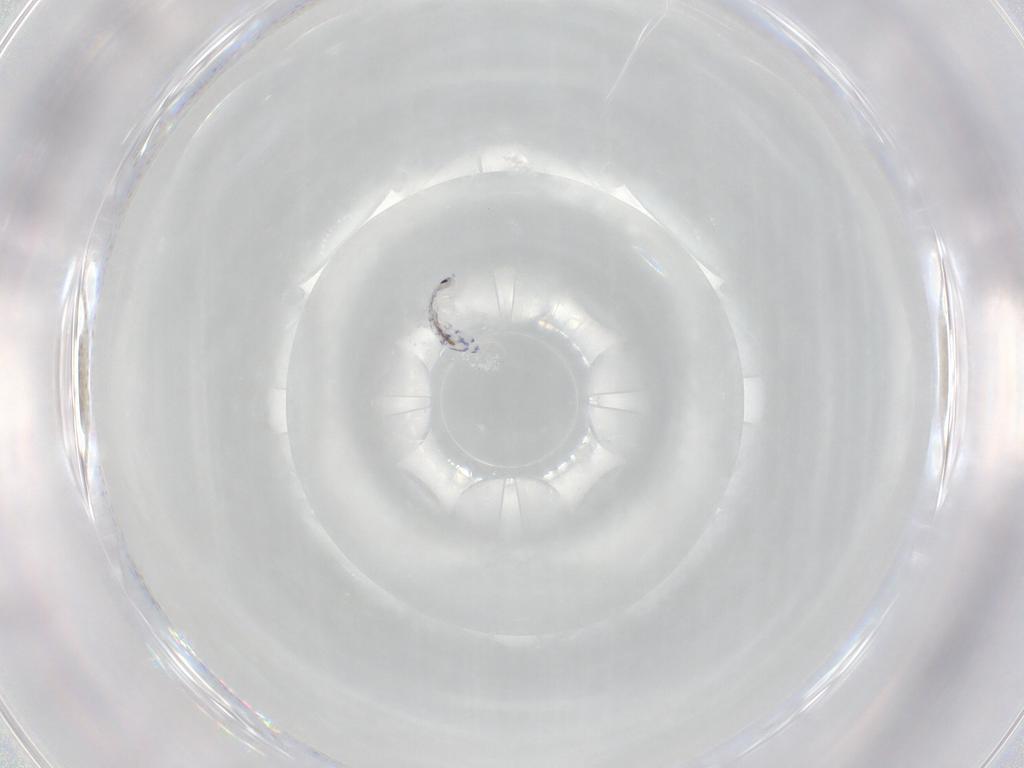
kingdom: Animalia
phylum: Arthropoda
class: Collembola
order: Entomobryomorpha
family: Entomobryidae
